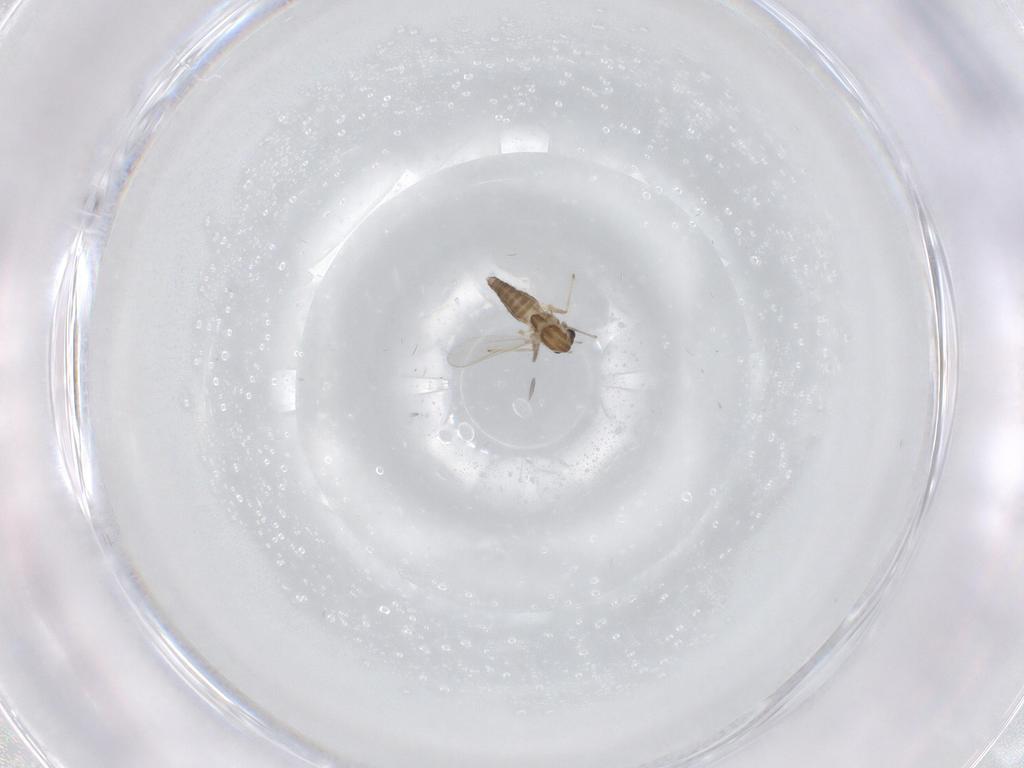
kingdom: Animalia
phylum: Arthropoda
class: Insecta
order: Diptera
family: Chironomidae
